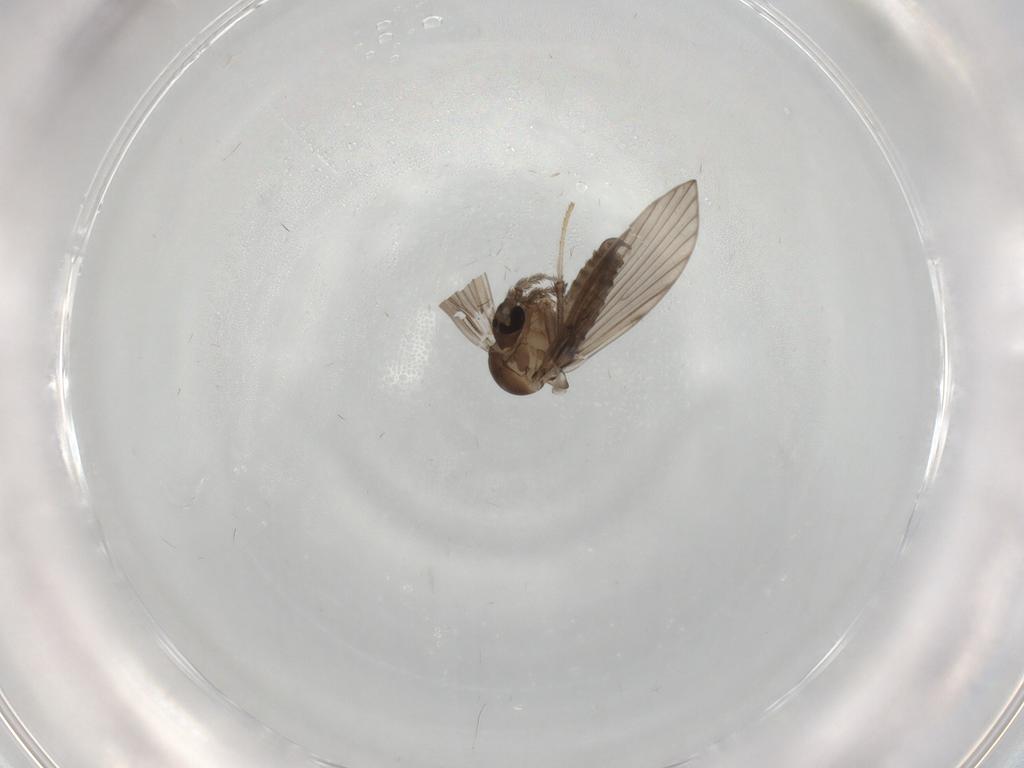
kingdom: Animalia
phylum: Arthropoda
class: Insecta
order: Diptera
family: Psychodidae
